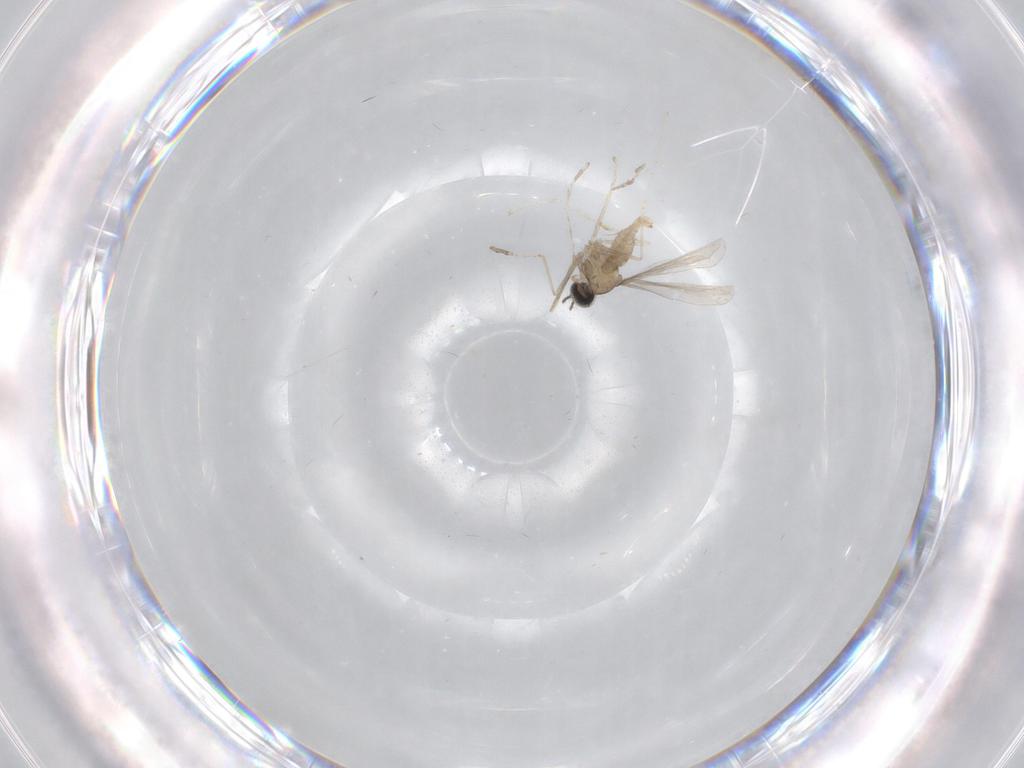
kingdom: Animalia
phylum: Arthropoda
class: Insecta
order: Diptera
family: Cecidomyiidae
